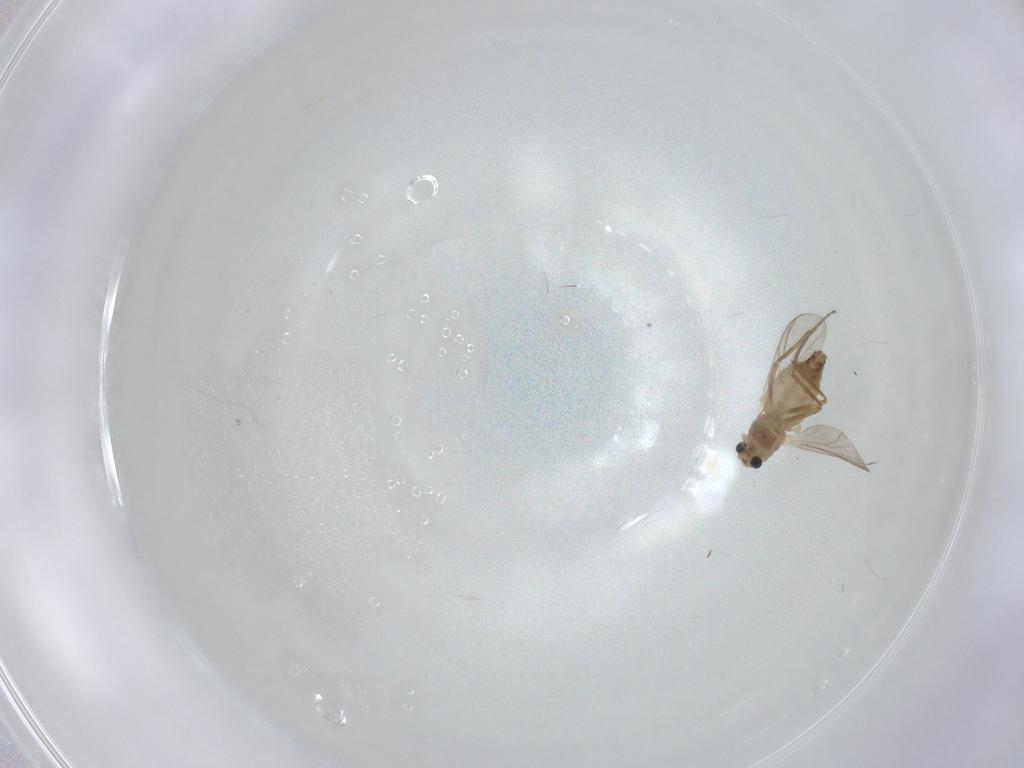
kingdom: Animalia
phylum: Arthropoda
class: Insecta
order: Diptera
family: Chironomidae
